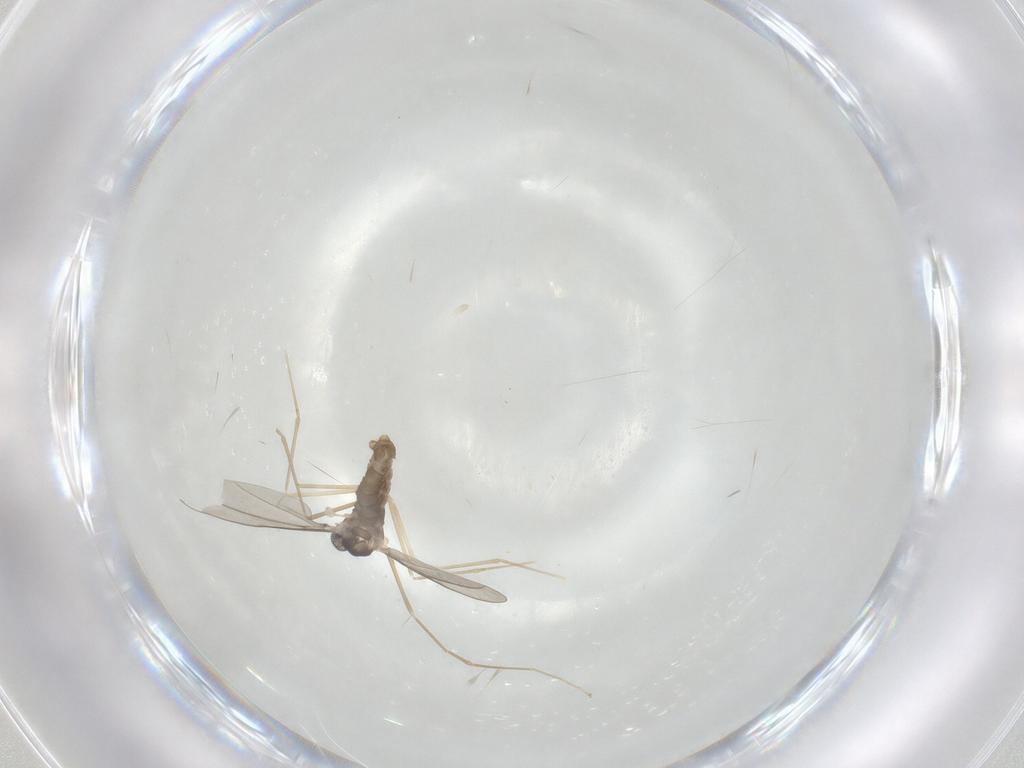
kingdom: Animalia
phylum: Arthropoda
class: Insecta
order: Diptera
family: Cecidomyiidae
